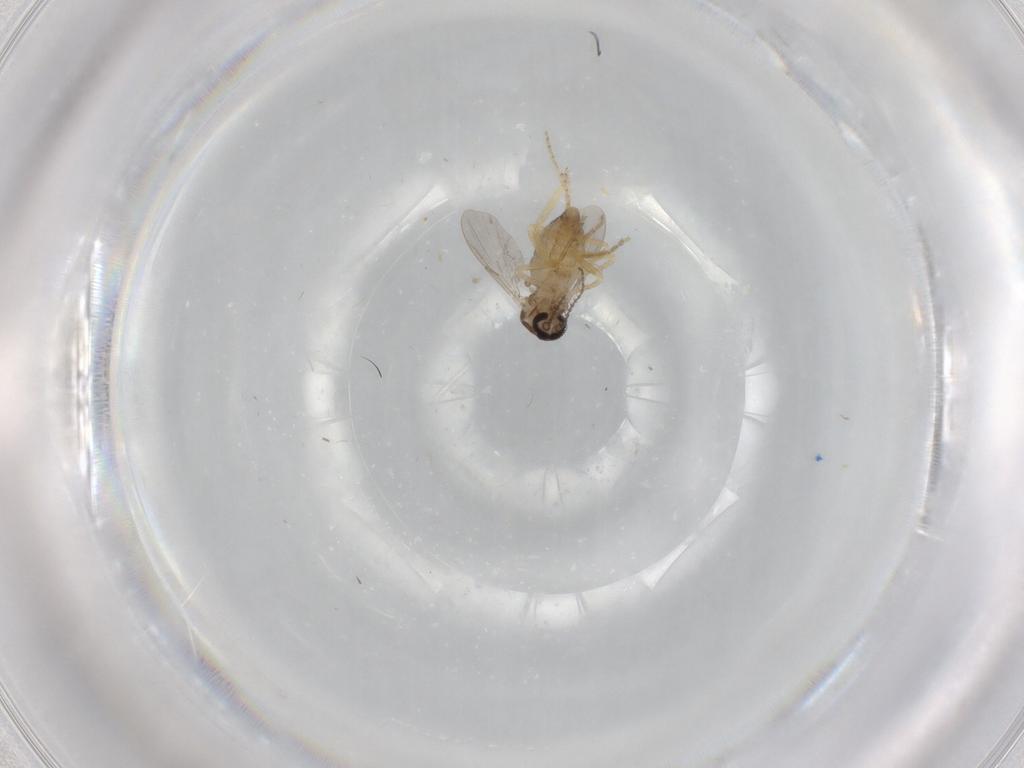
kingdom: Animalia
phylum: Arthropoda
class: Insecta
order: Diptera
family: Ceratopogonidae
